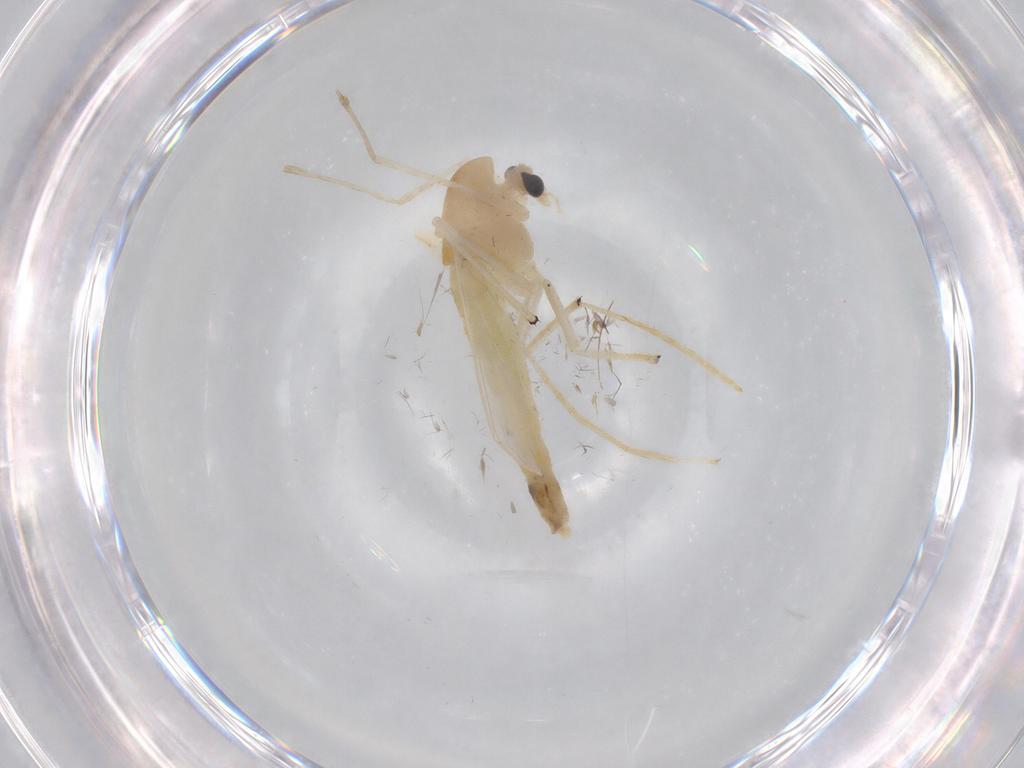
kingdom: Animalia
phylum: Arthropoda
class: Insecta
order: Diptera
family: Chironomidae
